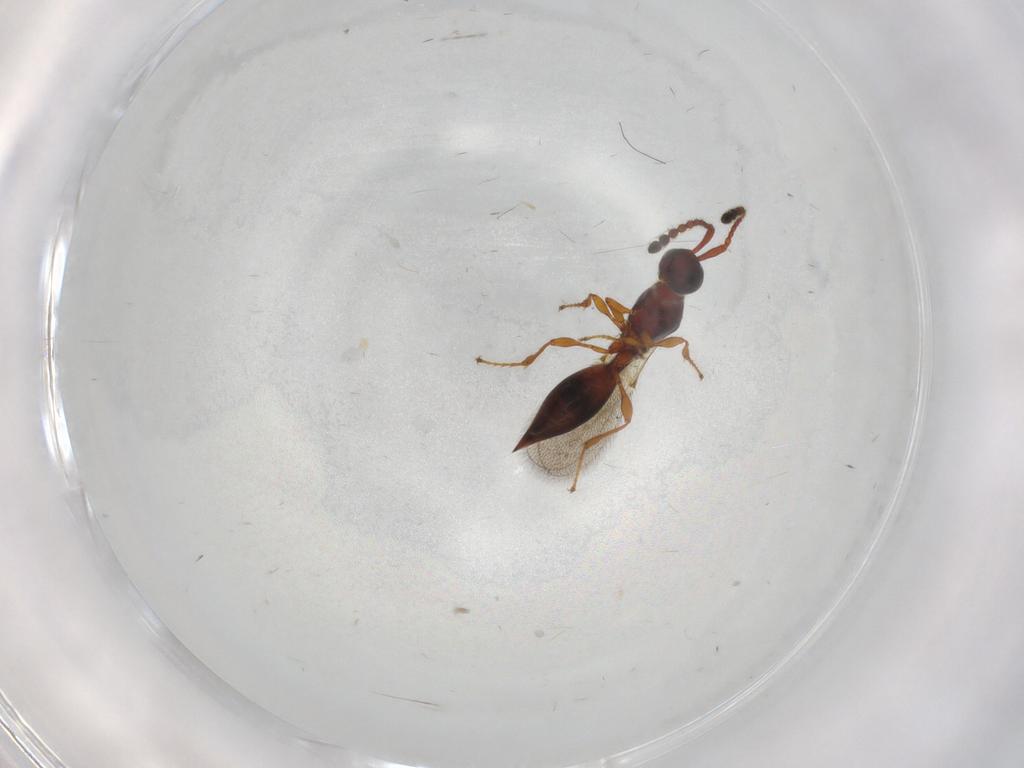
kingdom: Animalia
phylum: Arthropoda
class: Insecta
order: Hymenoptera
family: Diapriidae
